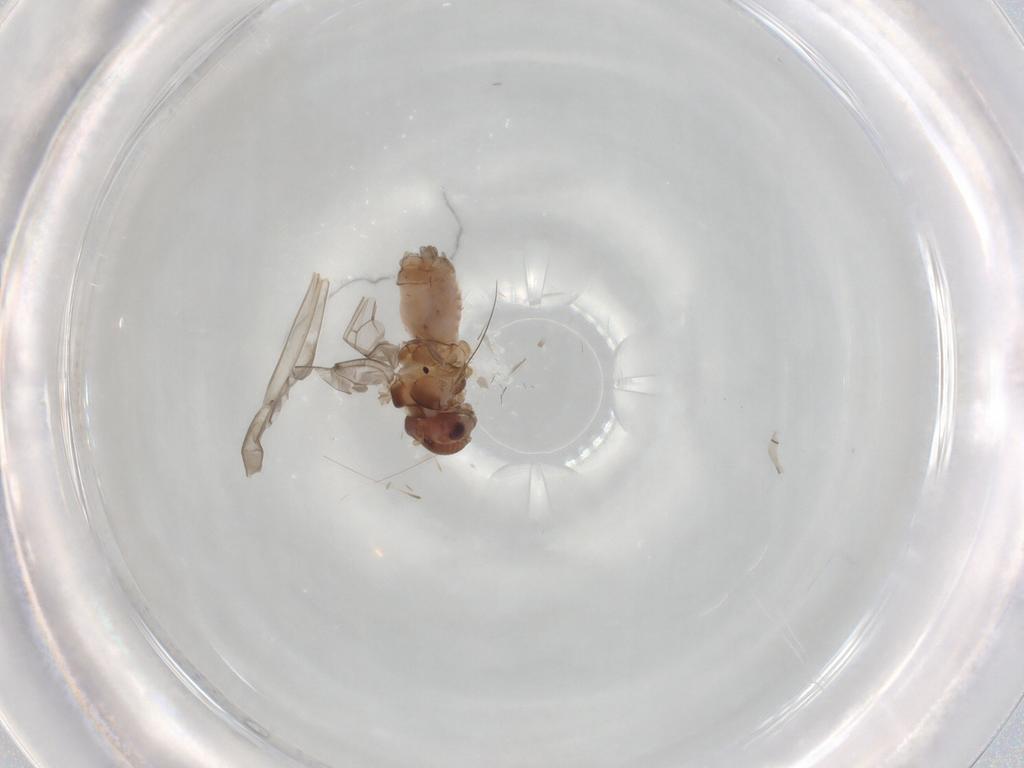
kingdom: Animalia
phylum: Arthropoda
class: Insecta
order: Psocodea
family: Peripsocidae
